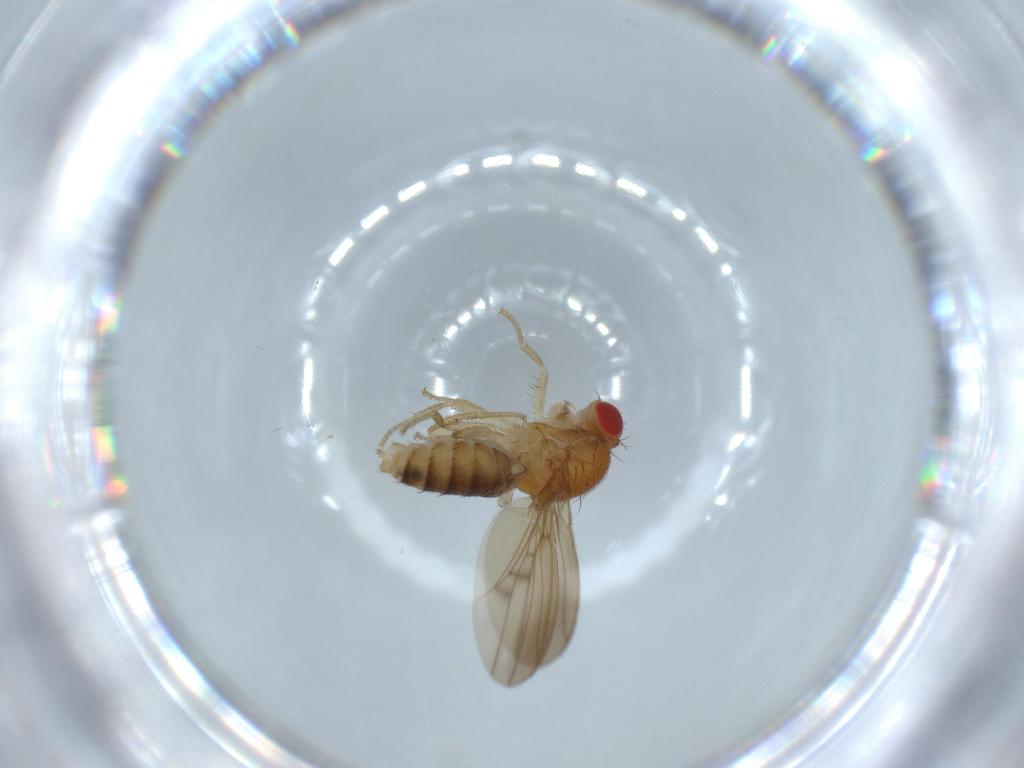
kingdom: Animalia
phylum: Arthropoda
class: Insecta
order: Diptera
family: Drosophilidae
